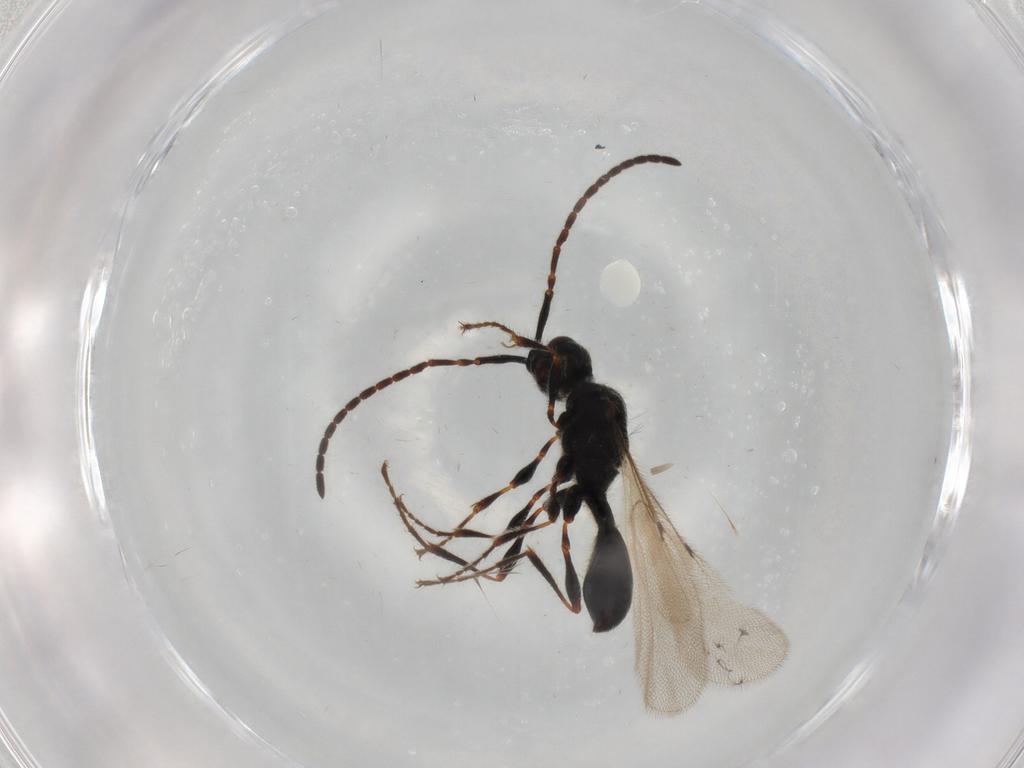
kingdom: Animalia
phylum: Arthropoda
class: Insecta
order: Hymenoptera
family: Diapriidae
